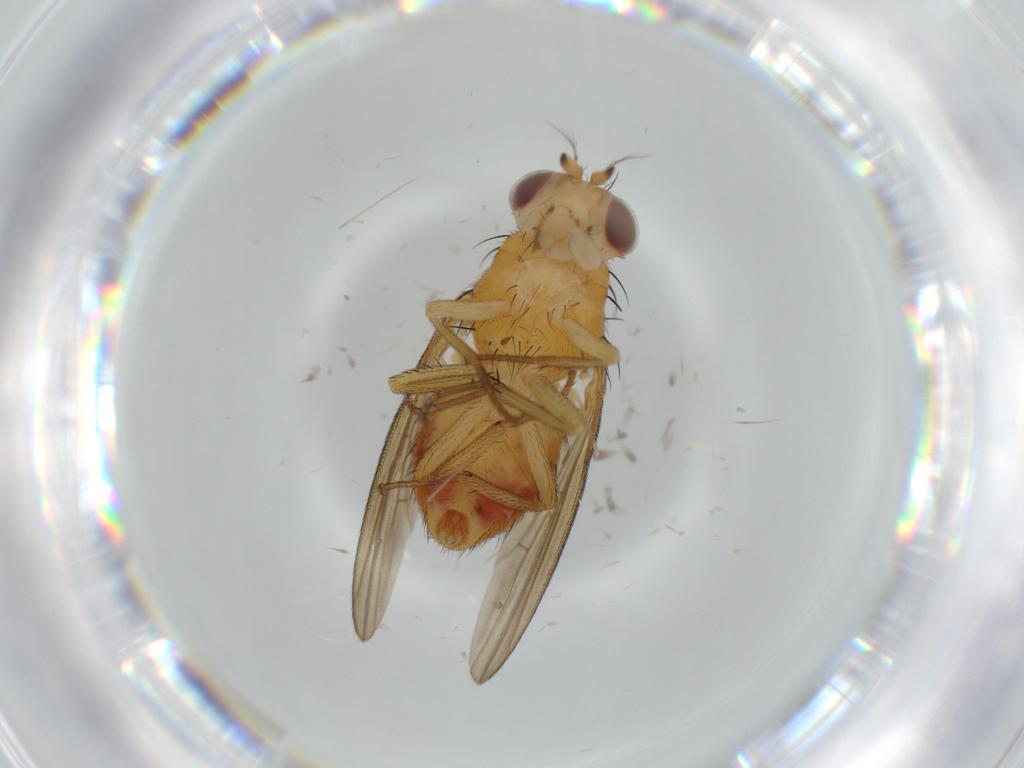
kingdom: Animalia
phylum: Arthropoda
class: Insecta
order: Diptera
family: Lauxaniidae
